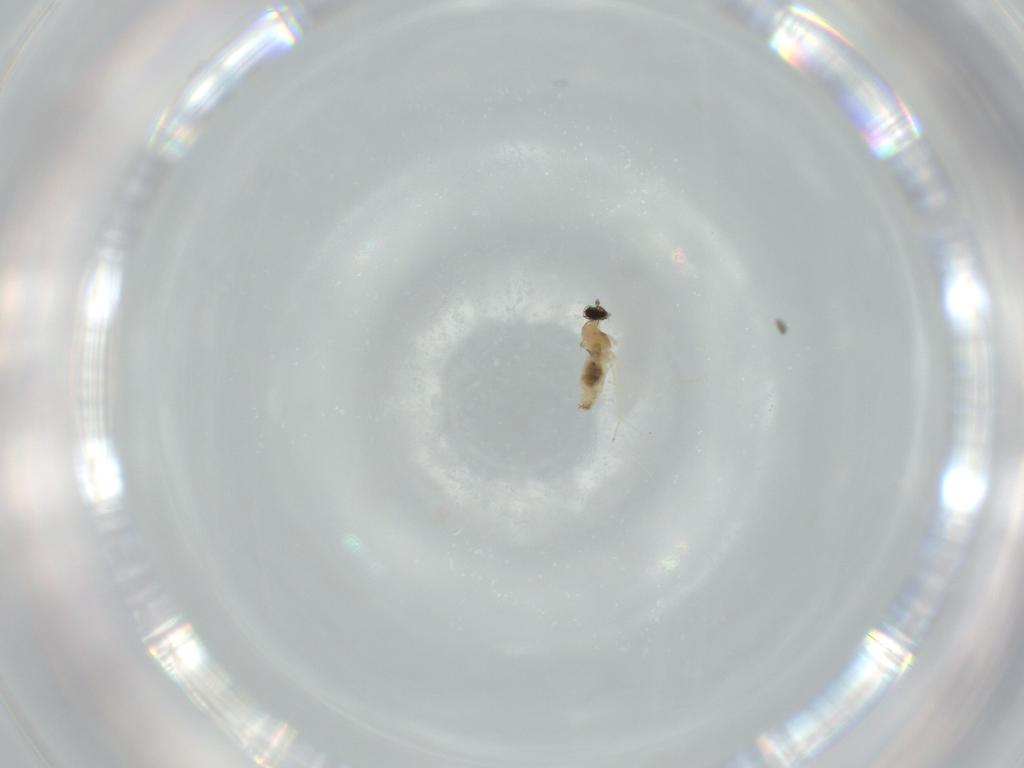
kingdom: Animalia
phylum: Arthropoda
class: Insecta
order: Diptera
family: Cecidomyiidae
